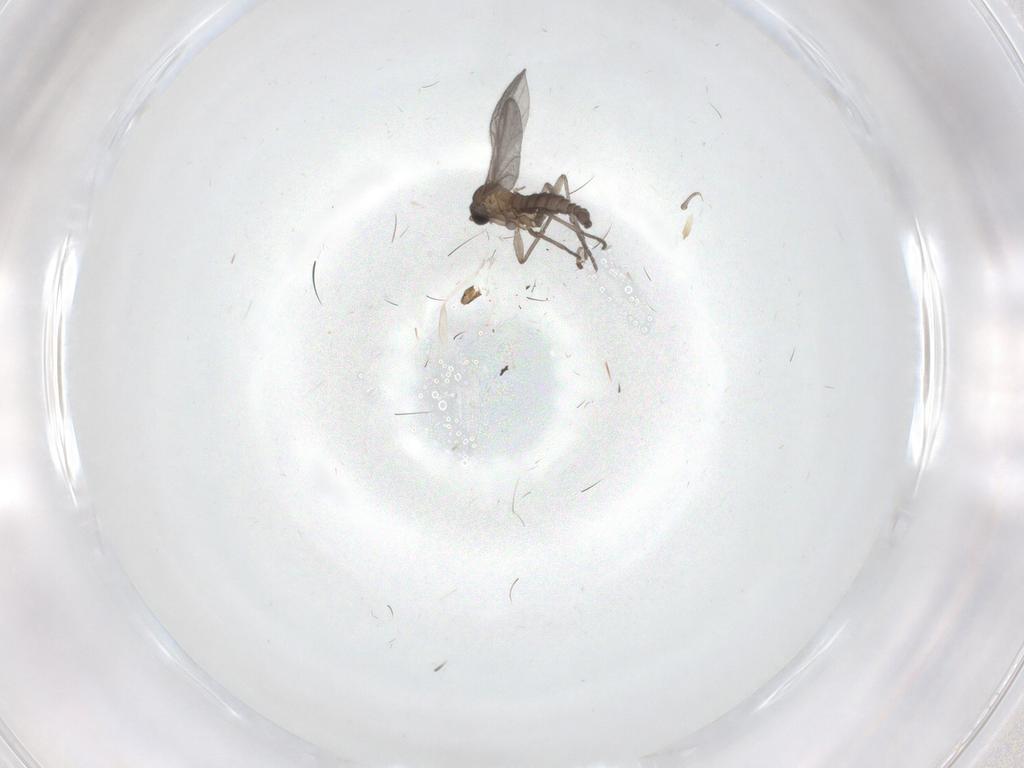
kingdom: Animalia
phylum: Arthropoda
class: Insecta
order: Diptera
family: Sciaridae
